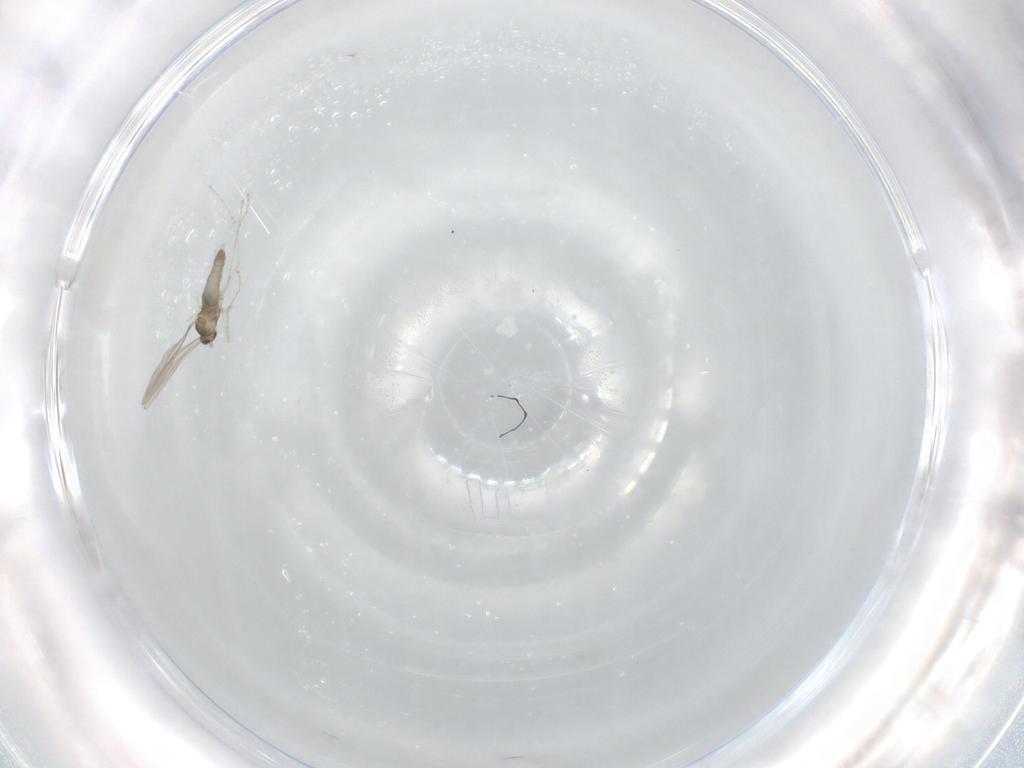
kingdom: Animalia
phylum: Arthropoda
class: Insecta
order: Diptera
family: Cecidomyiidae
